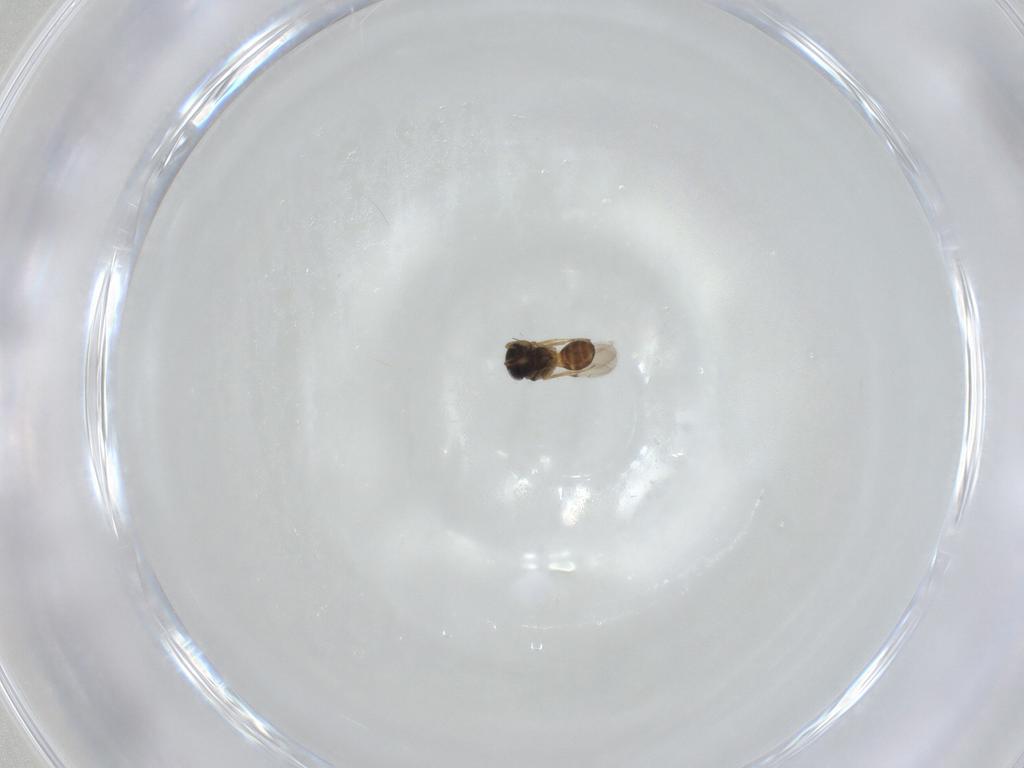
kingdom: Animalia
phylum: Arthropoda
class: Insecta
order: Hymenoptera
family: Scelionidae
